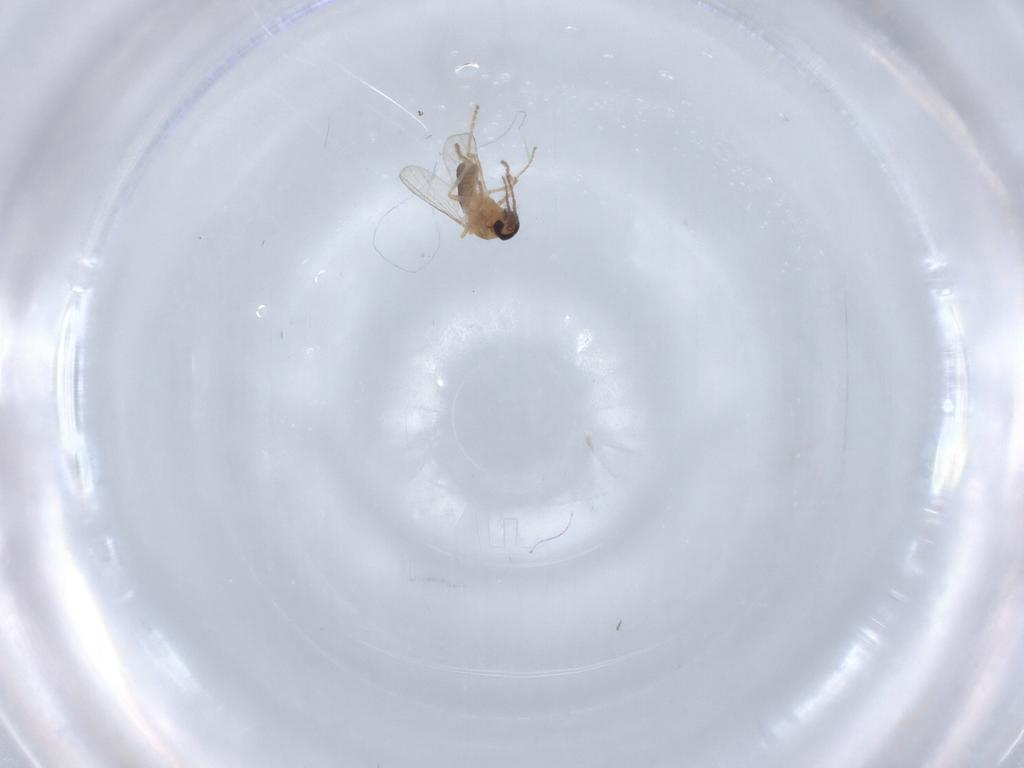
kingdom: Animalia
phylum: Arthropoda
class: Insecta
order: Diptera
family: Ceratopogonidae
